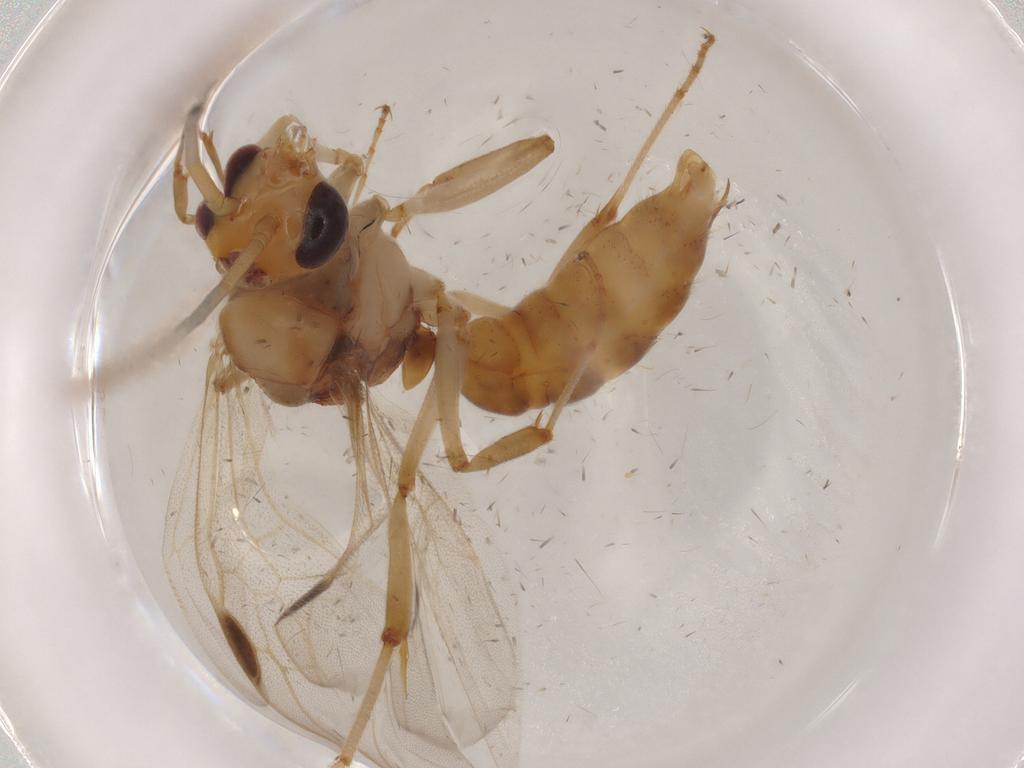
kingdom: Animalia
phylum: Arthropoda
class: Insecta
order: Hymenoptera
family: Formicidae
